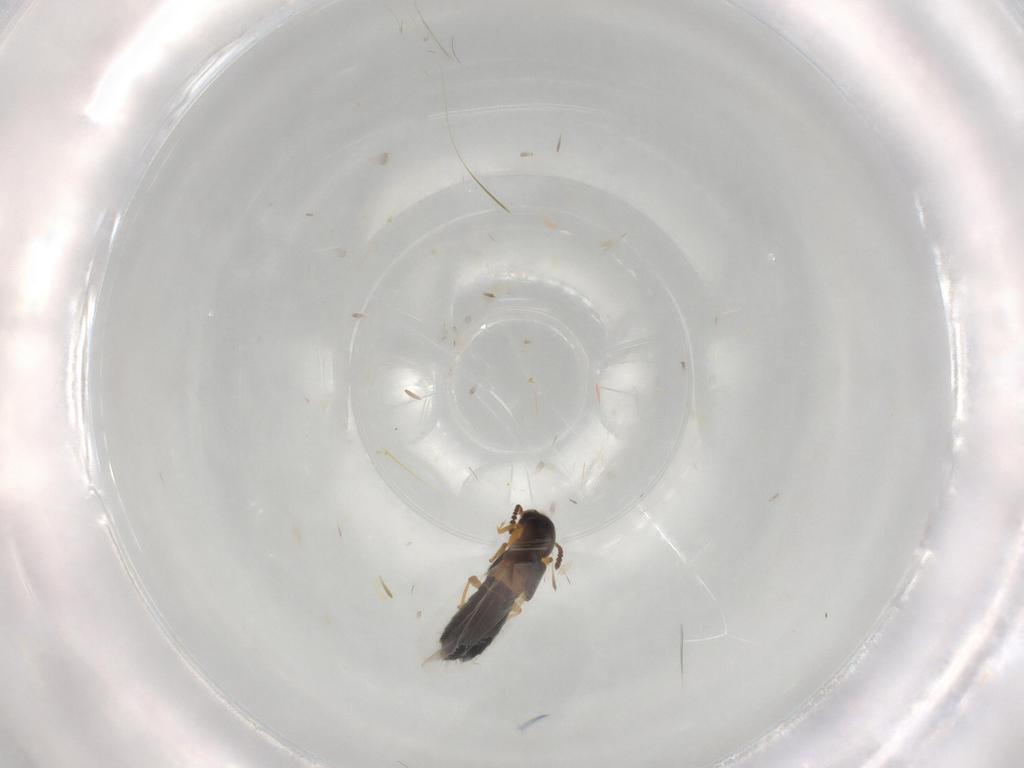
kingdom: Animalia
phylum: Arthropoda
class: Insecta
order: Coleoptera
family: Staphylinidae
